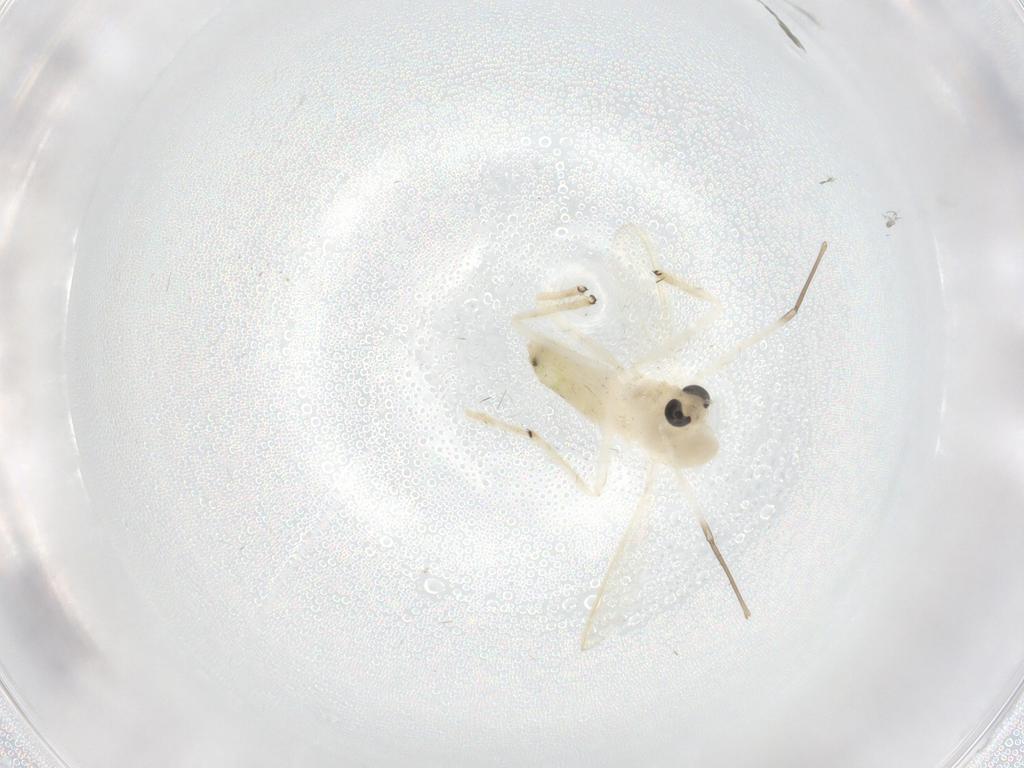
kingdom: Animalia
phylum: Arthropoda
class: Insecta
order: Diptera
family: Chironomidae
